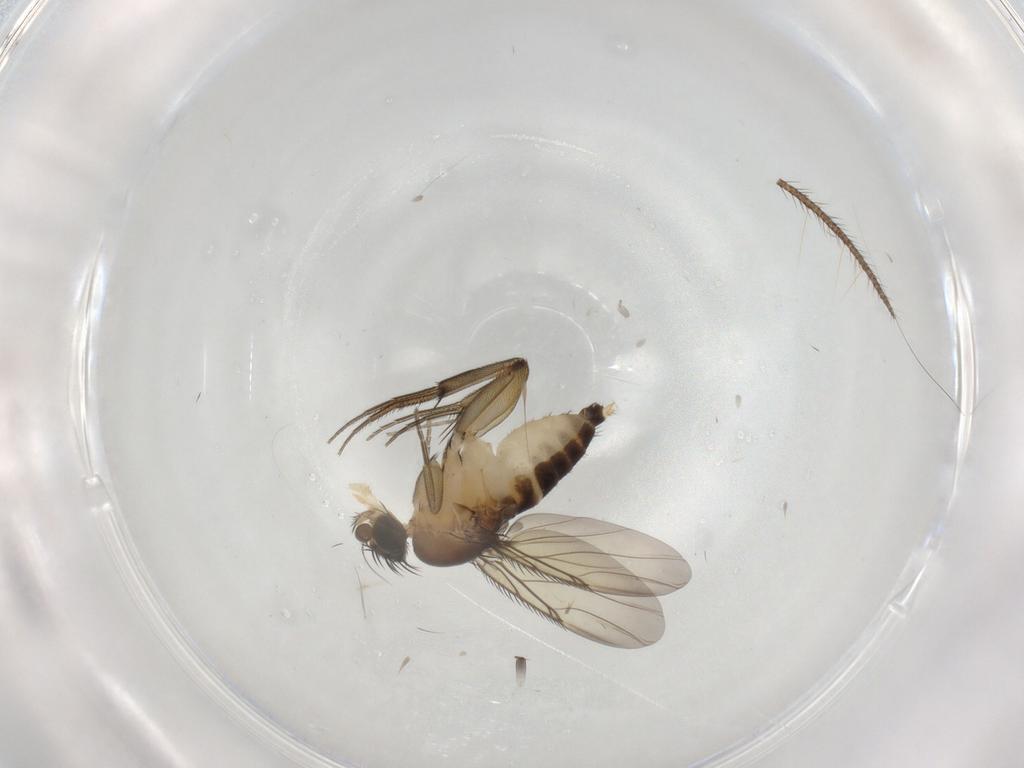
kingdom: Animalia
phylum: Arthropoda
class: Insecta
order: Diptera
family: Phoridae
